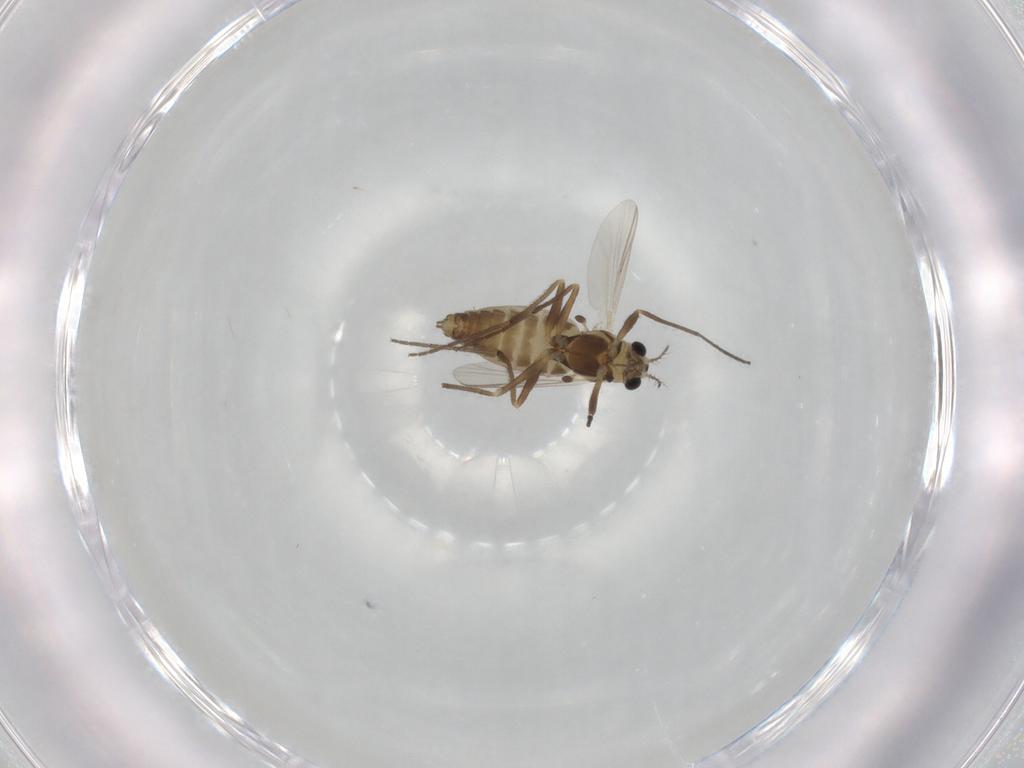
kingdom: Animalia
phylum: Arthropoda
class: Insecta
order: Diptera
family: Chironomidae
